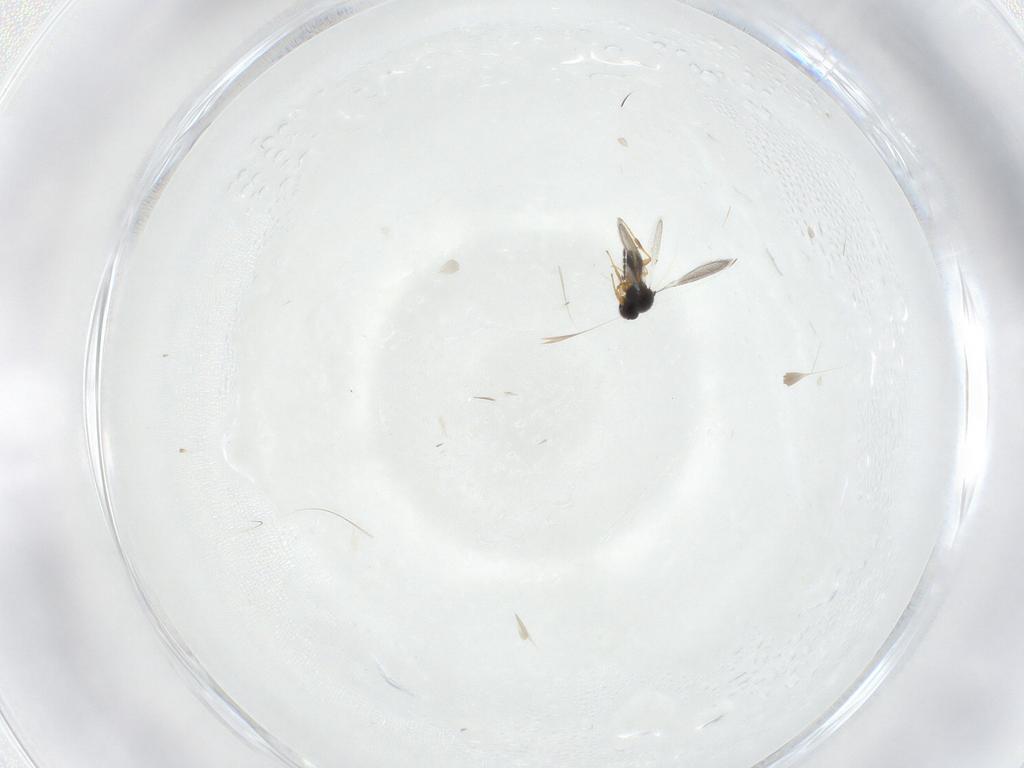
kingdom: Animalia
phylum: Arthropoda
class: Insecta
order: Hymenoptera
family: Platygastridae
